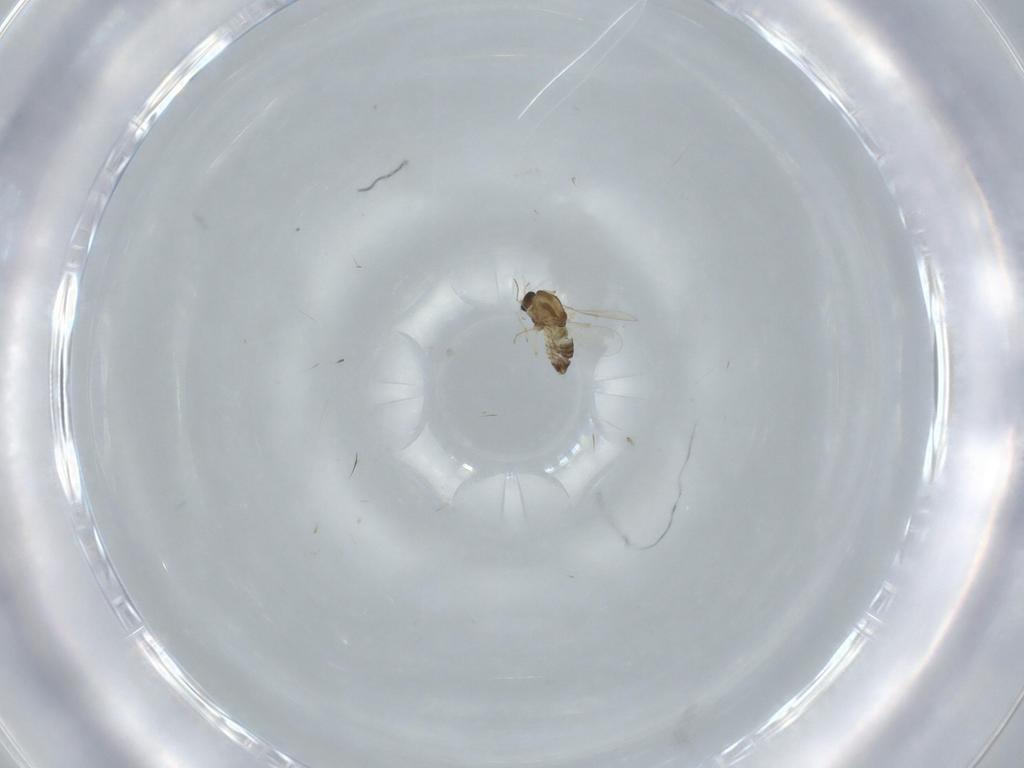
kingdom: Animalia
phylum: Arthropoda
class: Insecta
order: Diptera
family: Chironomidae
